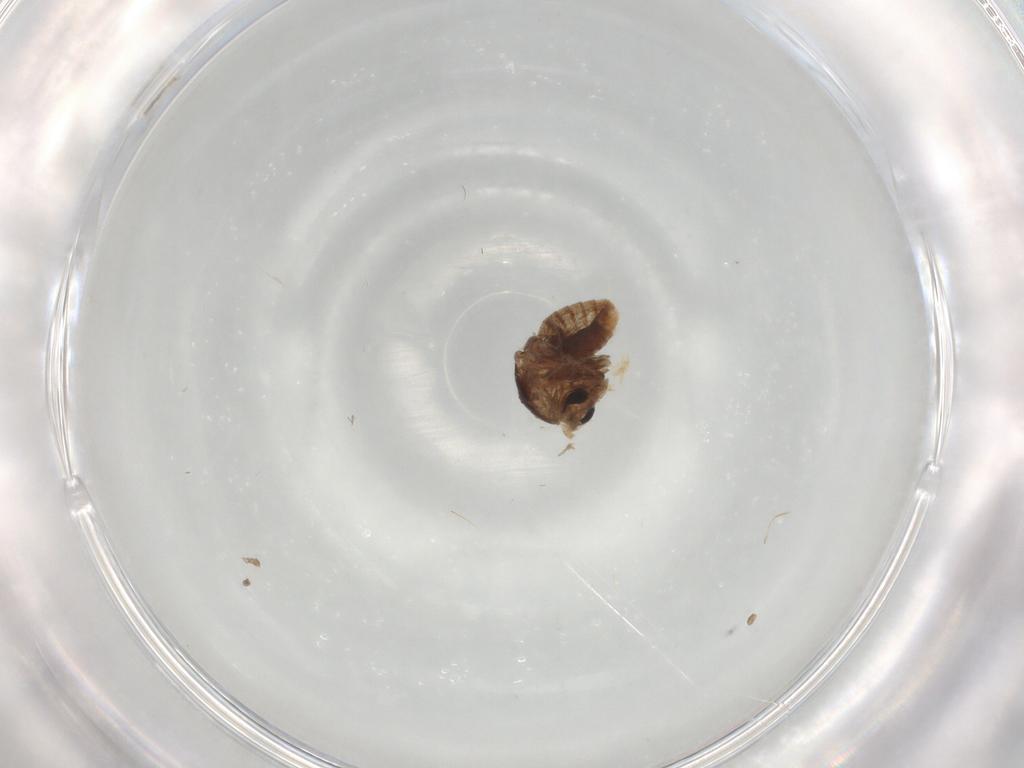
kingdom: Animalia
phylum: Arthropoda
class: Insecta
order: Diptera
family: Chironomidae
